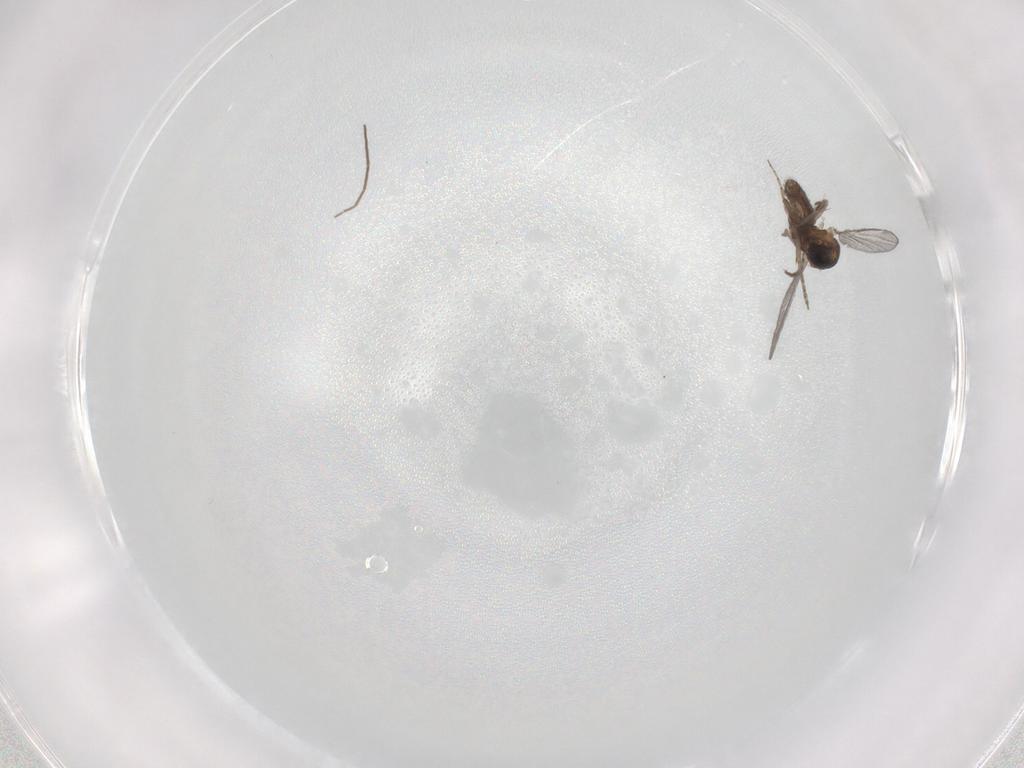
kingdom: Animalia
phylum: Arthropoda
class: Insecta
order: Diptera
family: Chironomidae
